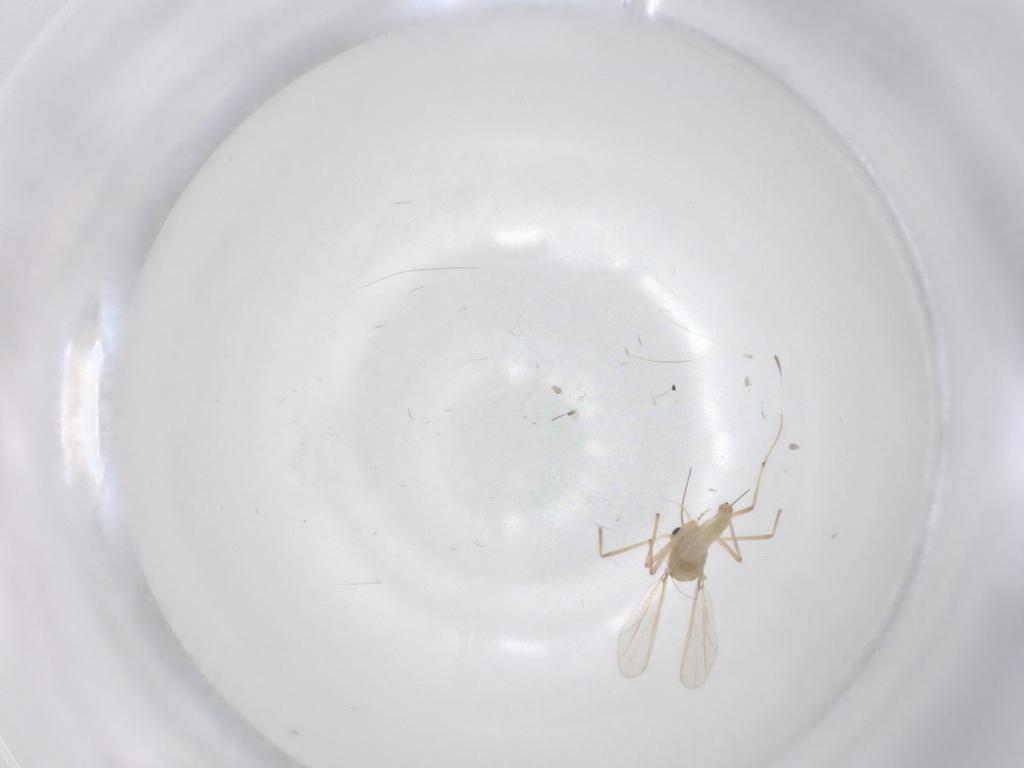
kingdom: Animalia
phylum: Arthropoda
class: Insecta
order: Diptera
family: Chironomidae
